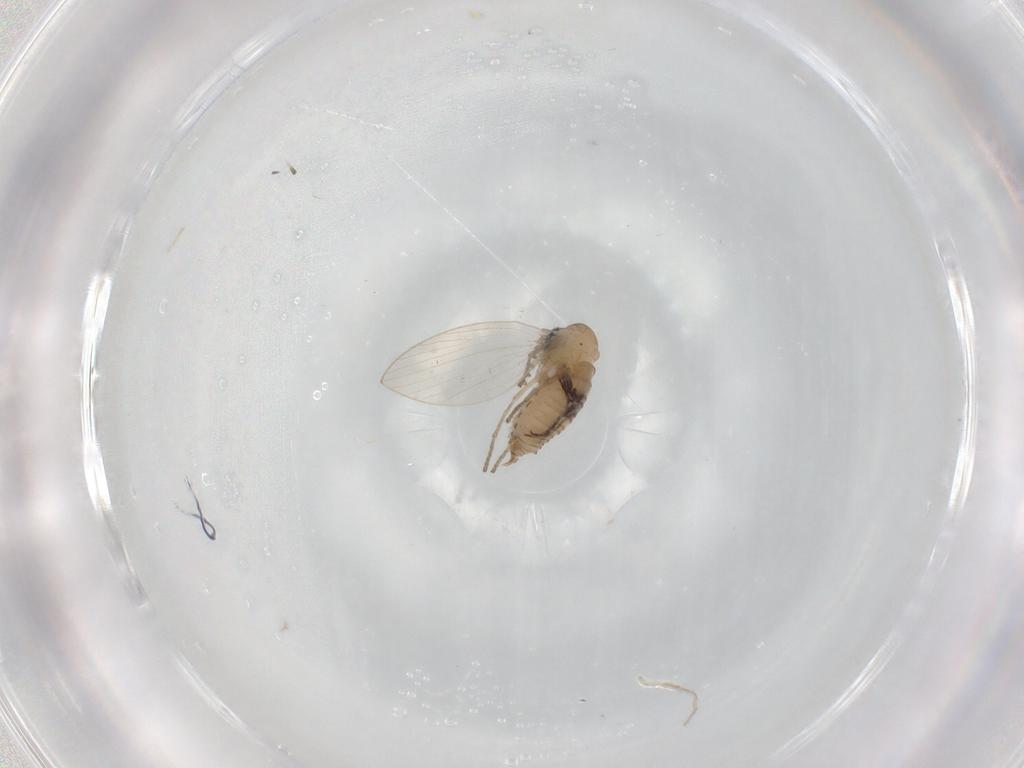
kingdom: Animalia
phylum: Arthropoda
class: Insecta
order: Diptera
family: Psychodidae
